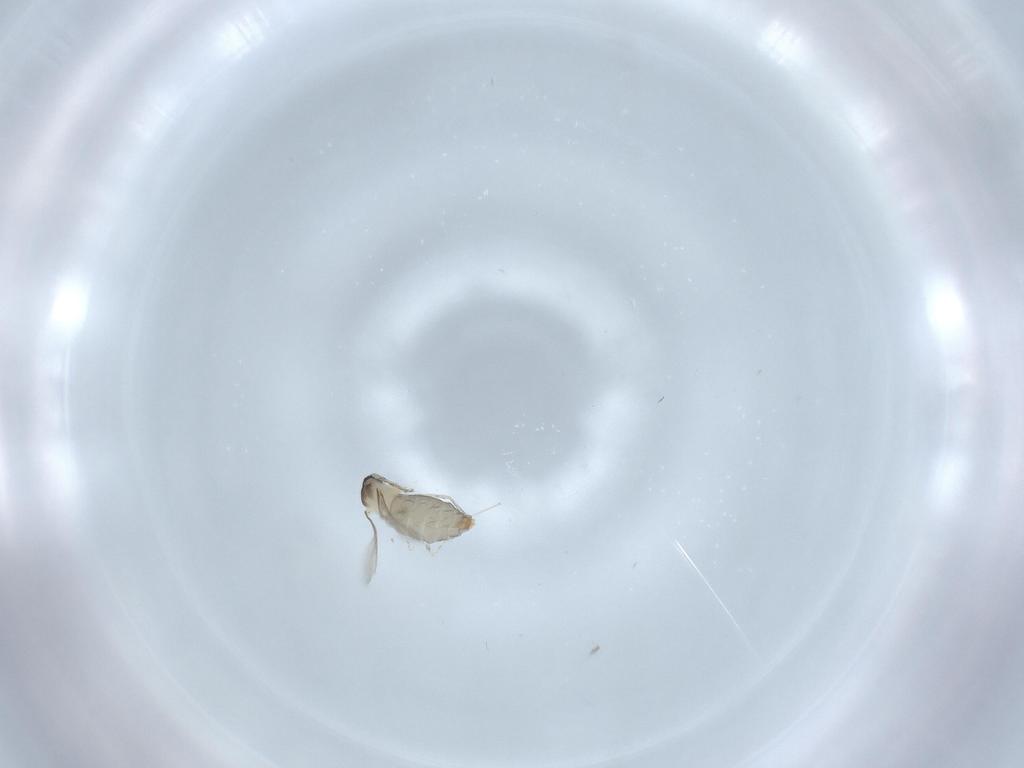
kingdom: Animalia
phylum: Arthropoda
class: Insecta
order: Diptera
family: Chironomidae
